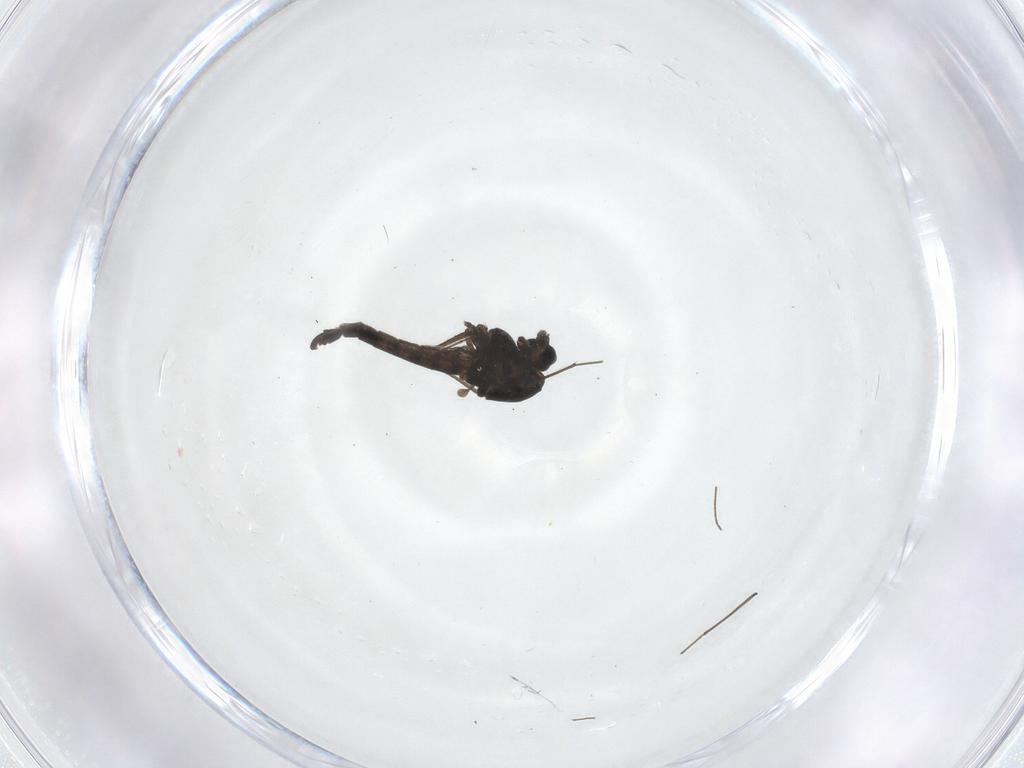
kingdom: Animalia
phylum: Arthropoda
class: Insecta
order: Diptera
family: Chironomidae
